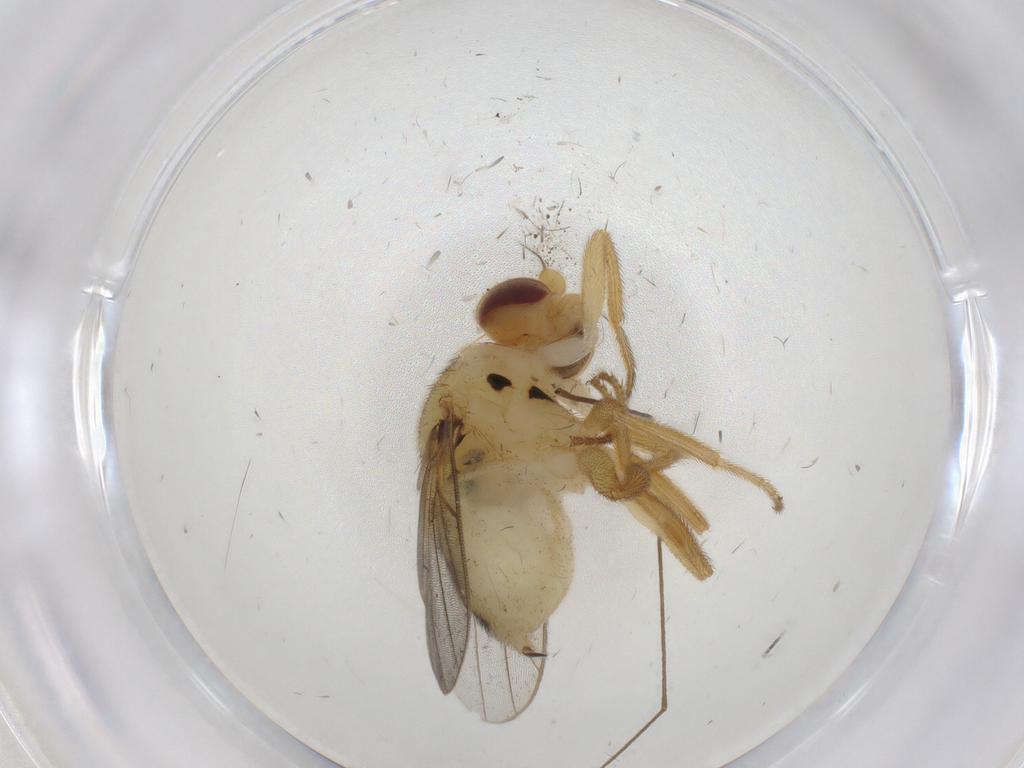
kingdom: Animalia
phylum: Arthropoda
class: Insecta
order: Diptera
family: Chloropidae
